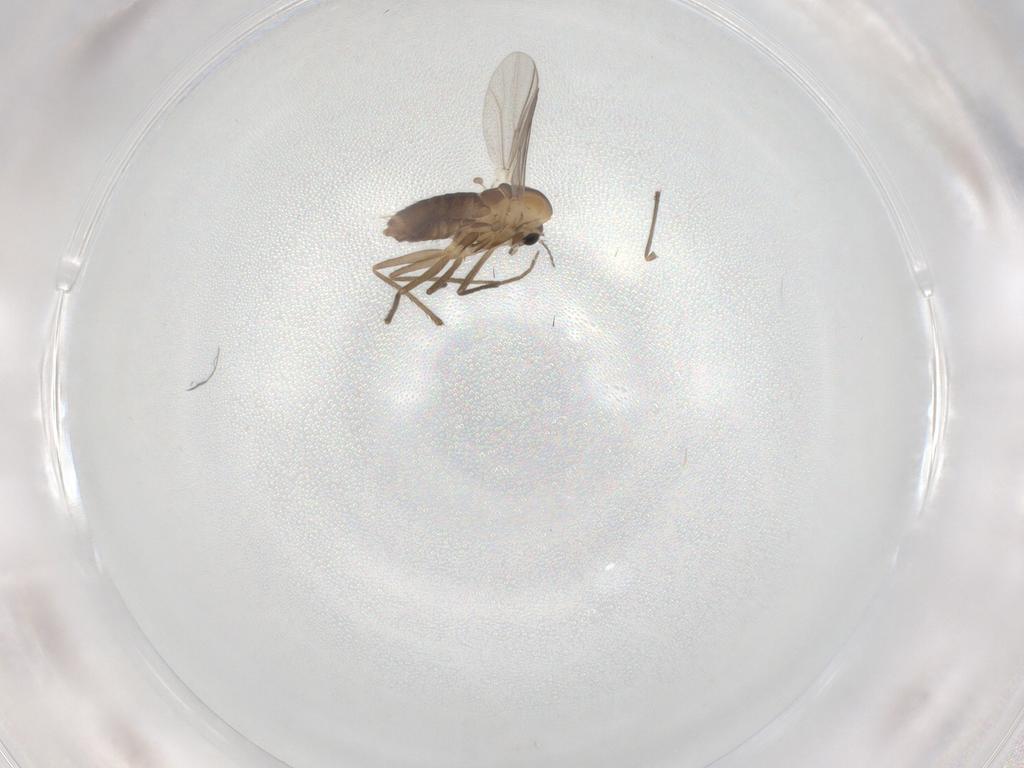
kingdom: Animalia
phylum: Arthropoda
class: Insecta
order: Diptera
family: Chironomidae
